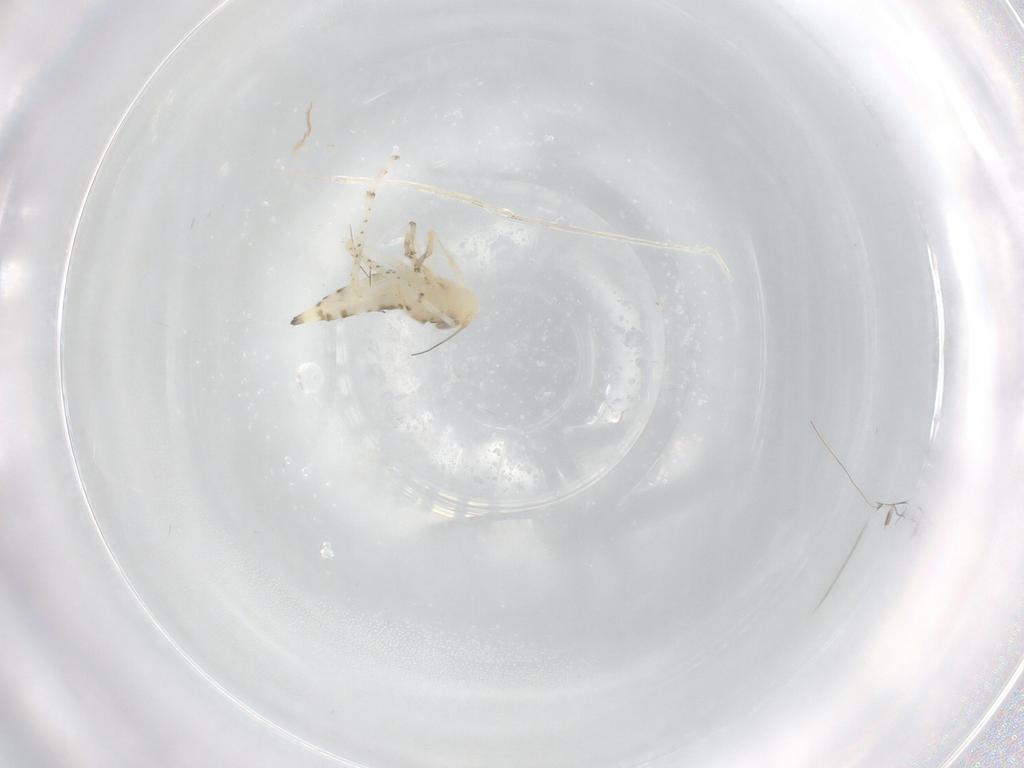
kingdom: Animalia
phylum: Arthropoda
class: Insecta
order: Hemiptera
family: Cicadellidae
